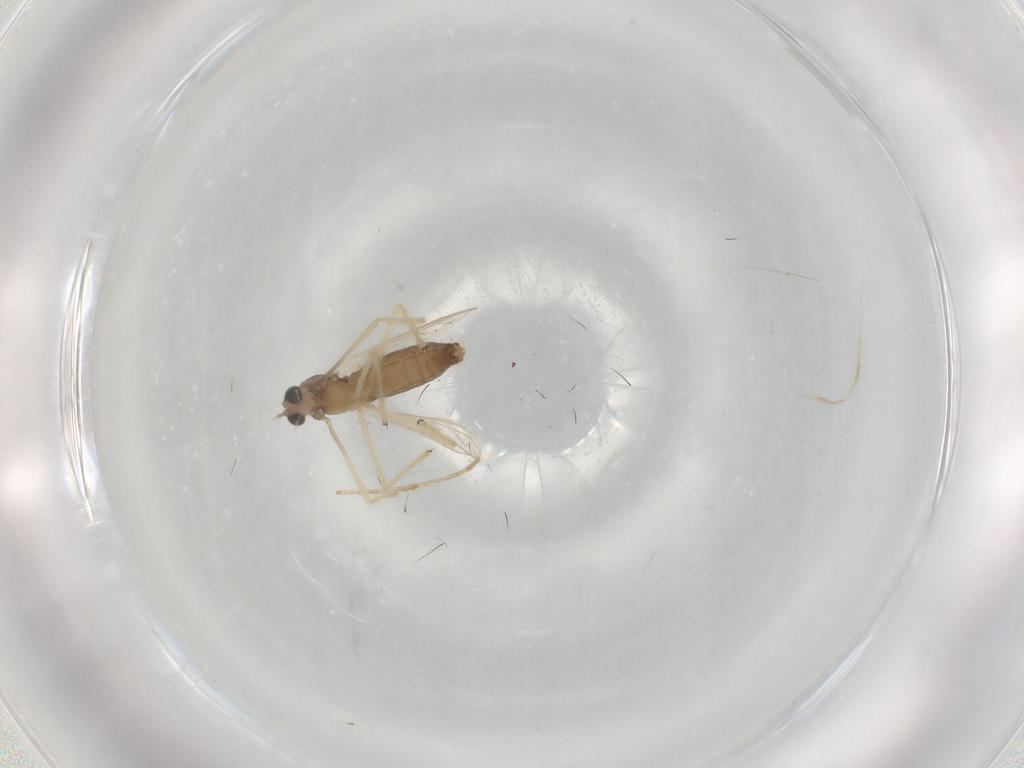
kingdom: Animalia
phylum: Arthropoda
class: Insecta
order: Diptera
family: Chironomidae
